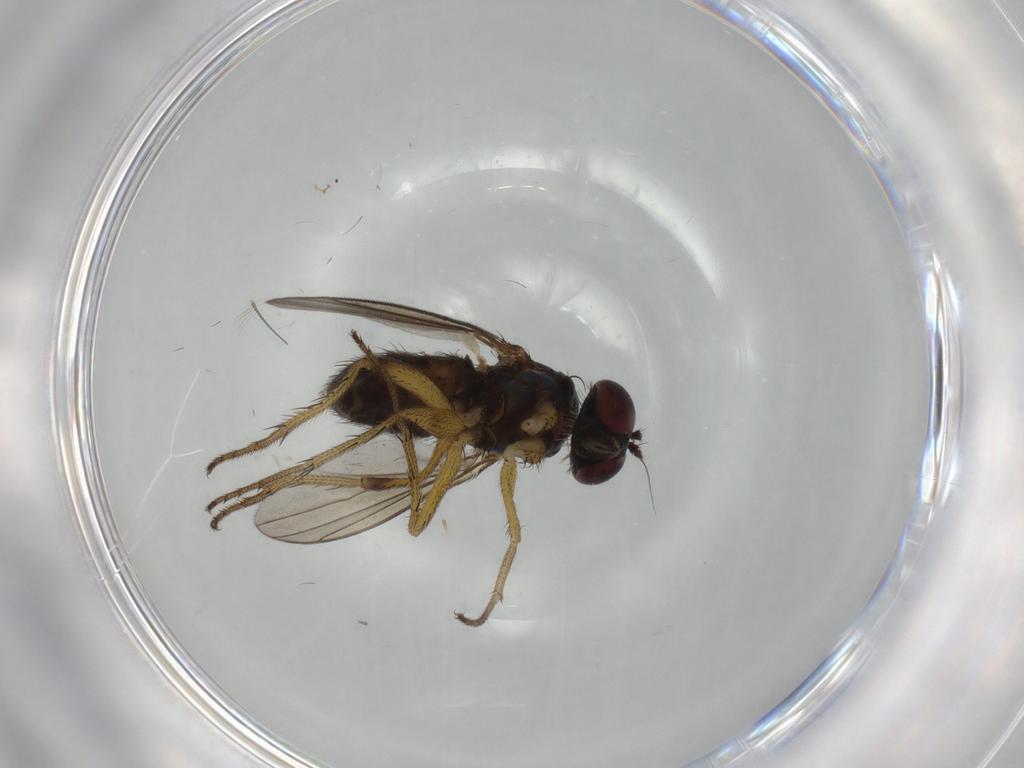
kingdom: Animalia
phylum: Arthropoda
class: Insecta
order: Diptera
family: Dolichopodidae
